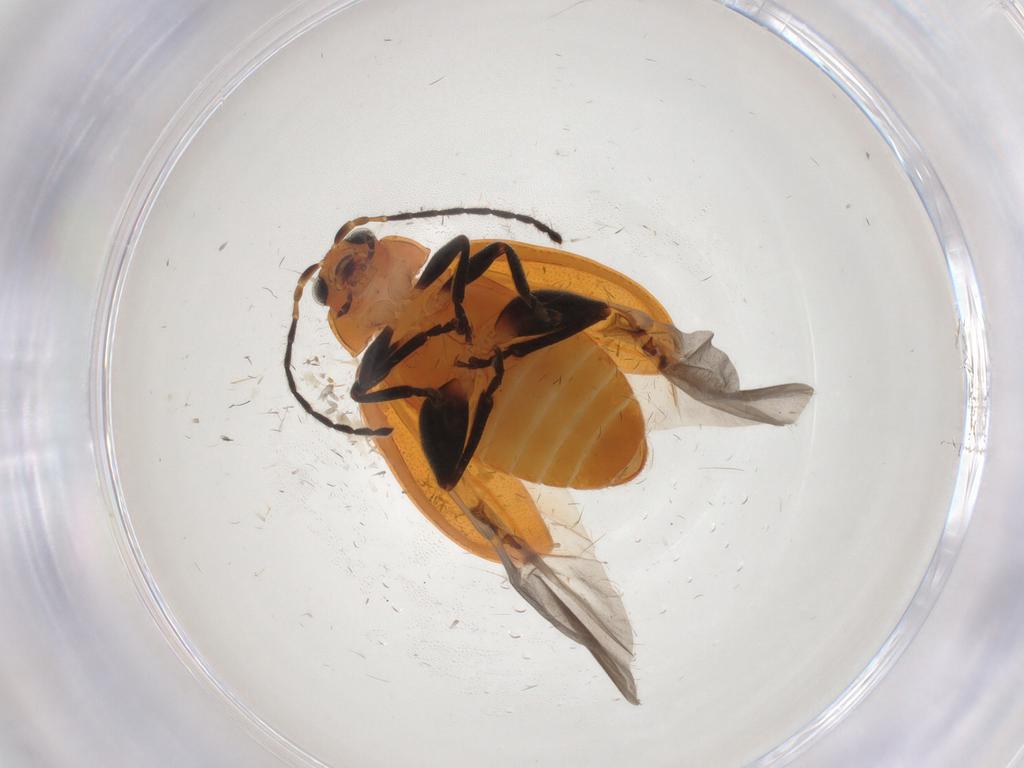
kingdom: Animalia
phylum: Arthropoda
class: Insecta
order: Coleoptera
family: Chrysomelidae
